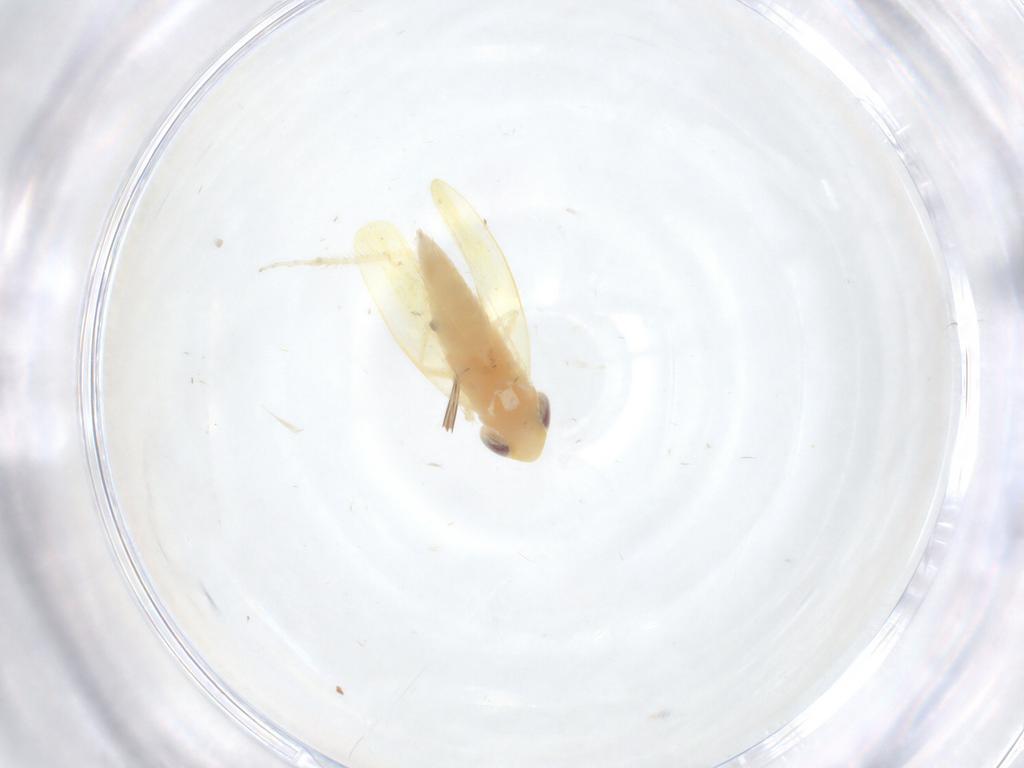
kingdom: Animalia
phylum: Arthropoda
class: Insecta
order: Hemiptera
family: Cicadellidae
